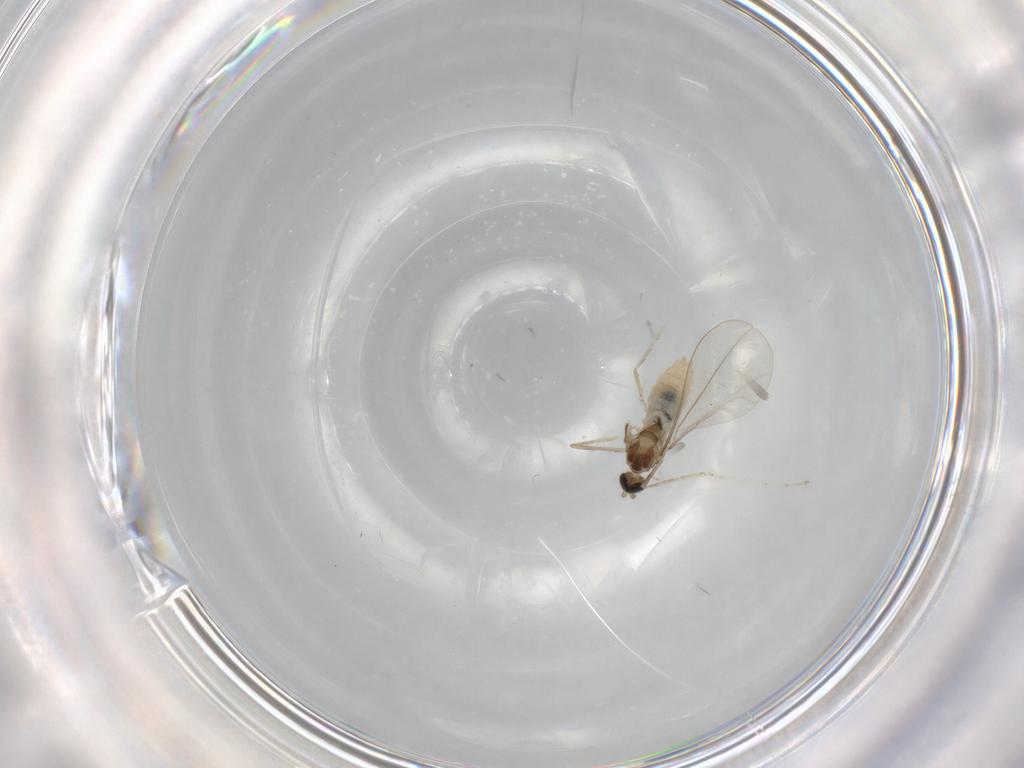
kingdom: Animalia
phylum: Arthropoda
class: Insecta
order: Diptera
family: Cecidomyiidae
